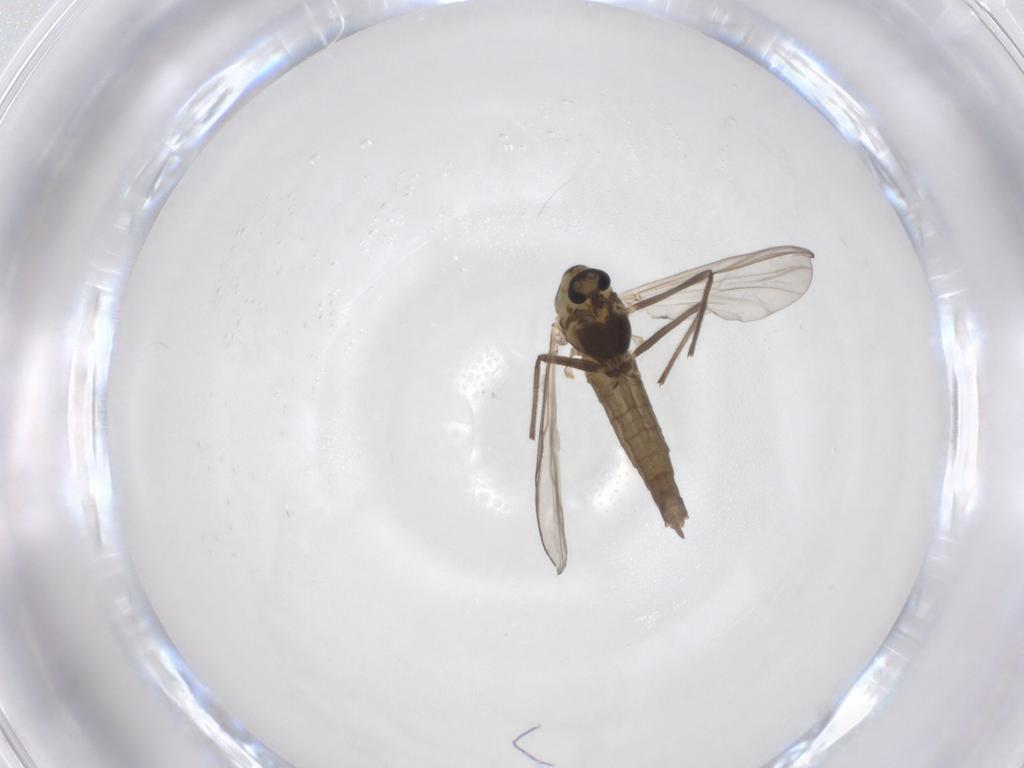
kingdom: Animalia
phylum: Arthropoda
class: Insecta
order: Diptera
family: Chironomidae
